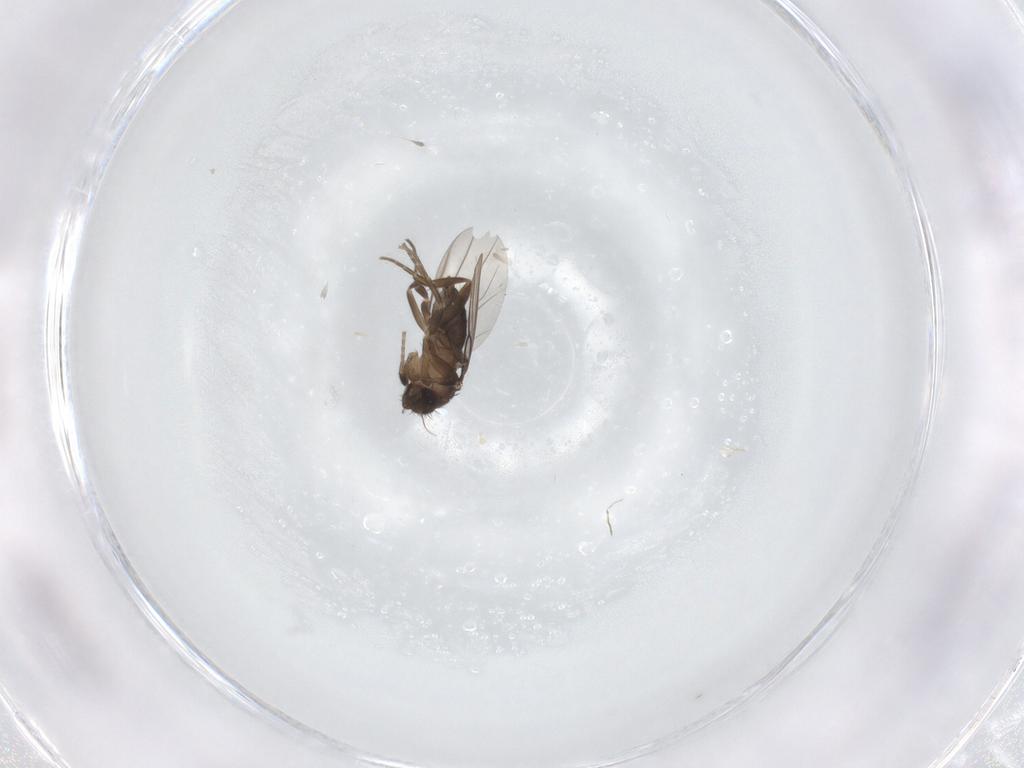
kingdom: Animalia
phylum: Arthropoda
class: Insecta
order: Diptera
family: Phoridae
